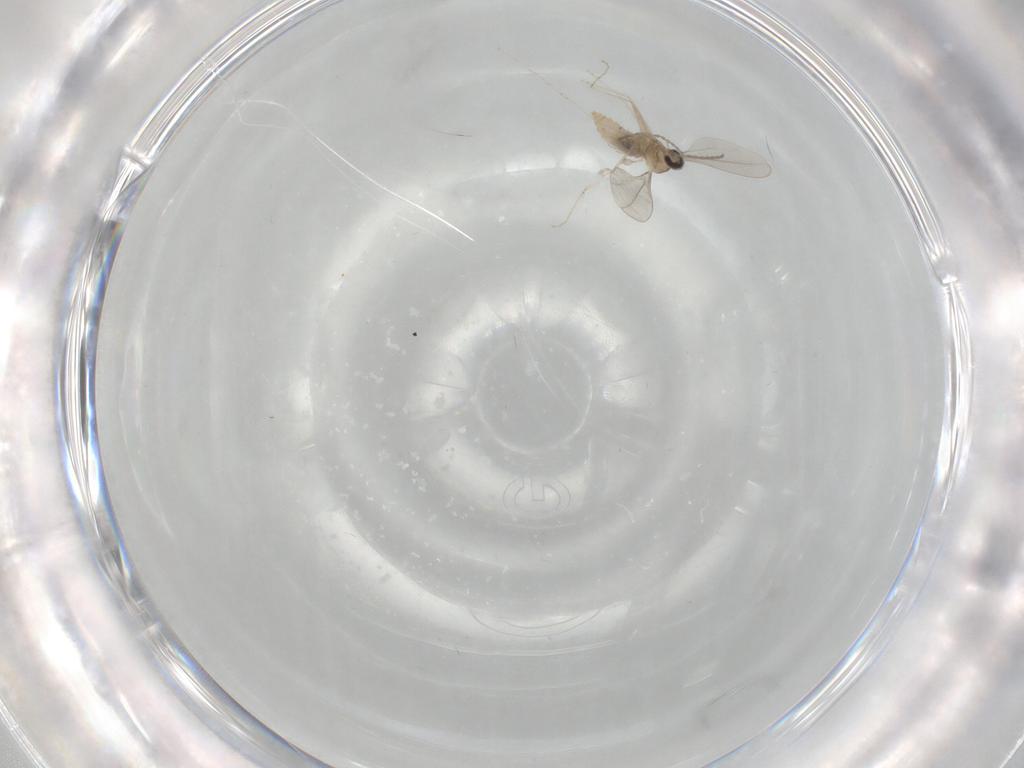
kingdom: Animalia
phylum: Arthropoda
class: Insecta
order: Diptera
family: Cecidomyiidae
